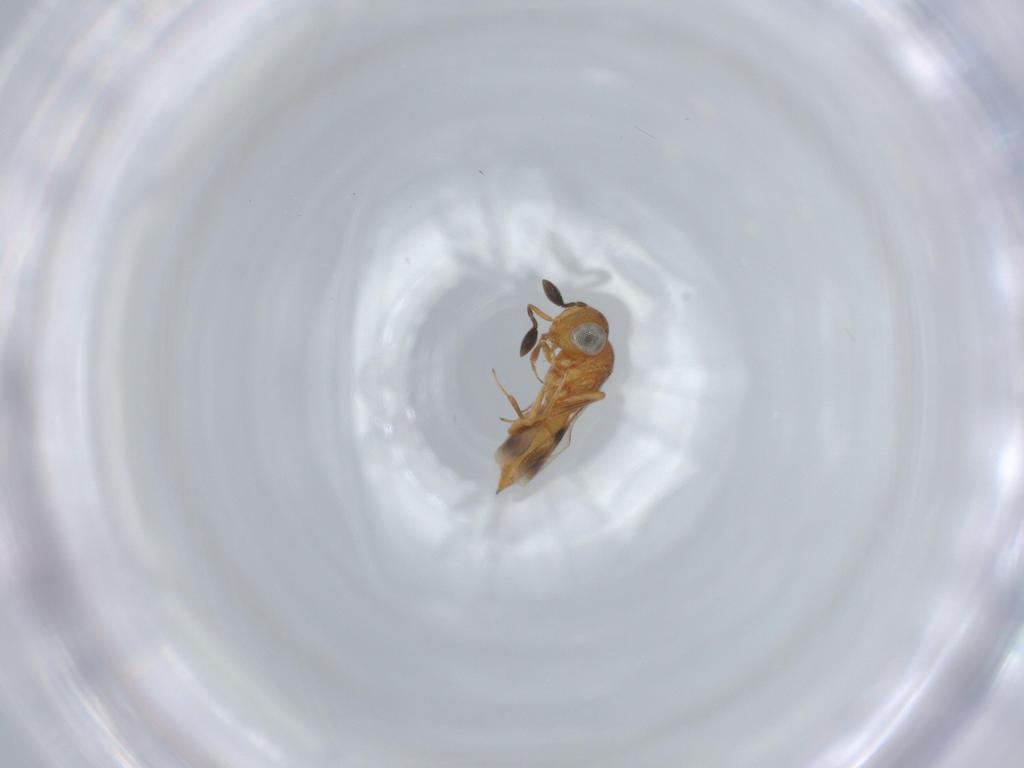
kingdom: Animalia
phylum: Arthropoda
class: Insecta
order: Hymenoptera
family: Scelionidae
